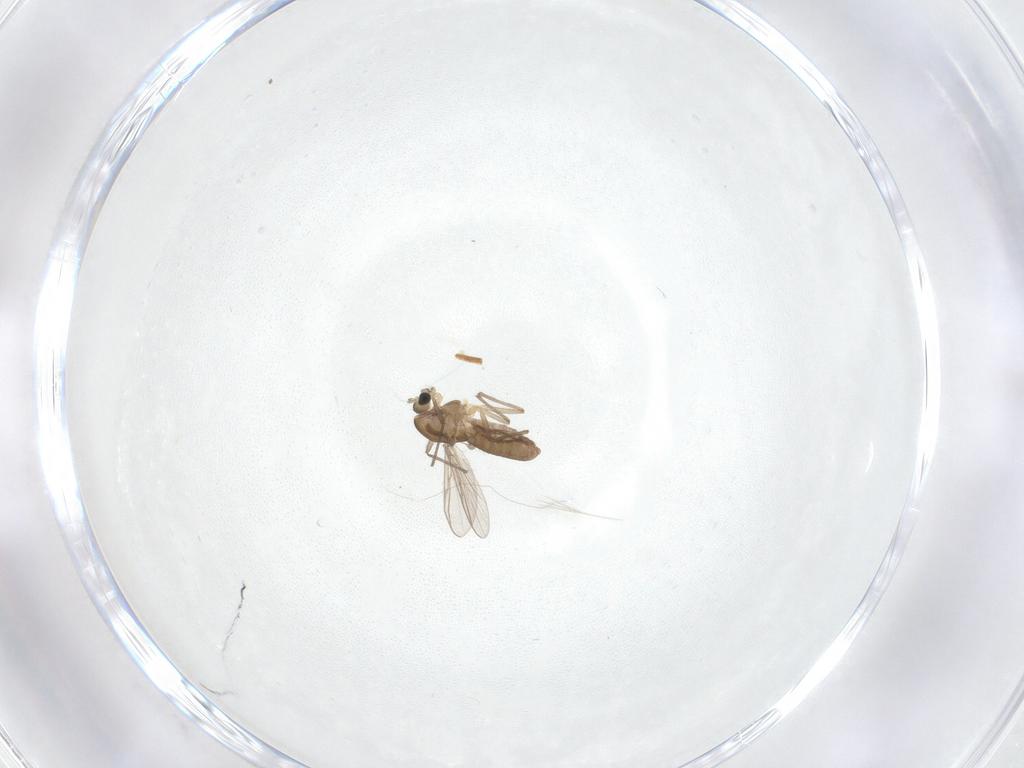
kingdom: Animalia
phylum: Arthropoda
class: Insecta
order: Diptera
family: Chironomidae
